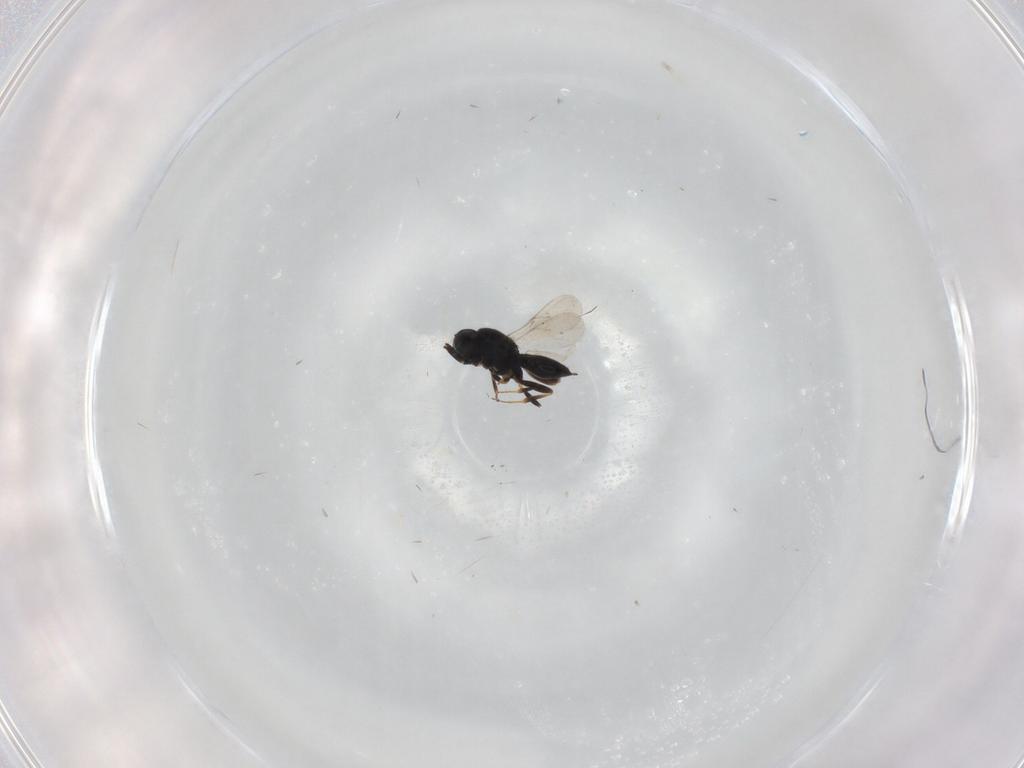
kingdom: Animalia
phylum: Arthropoda
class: Insecta
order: Hymenoptera
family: Scelionidae
